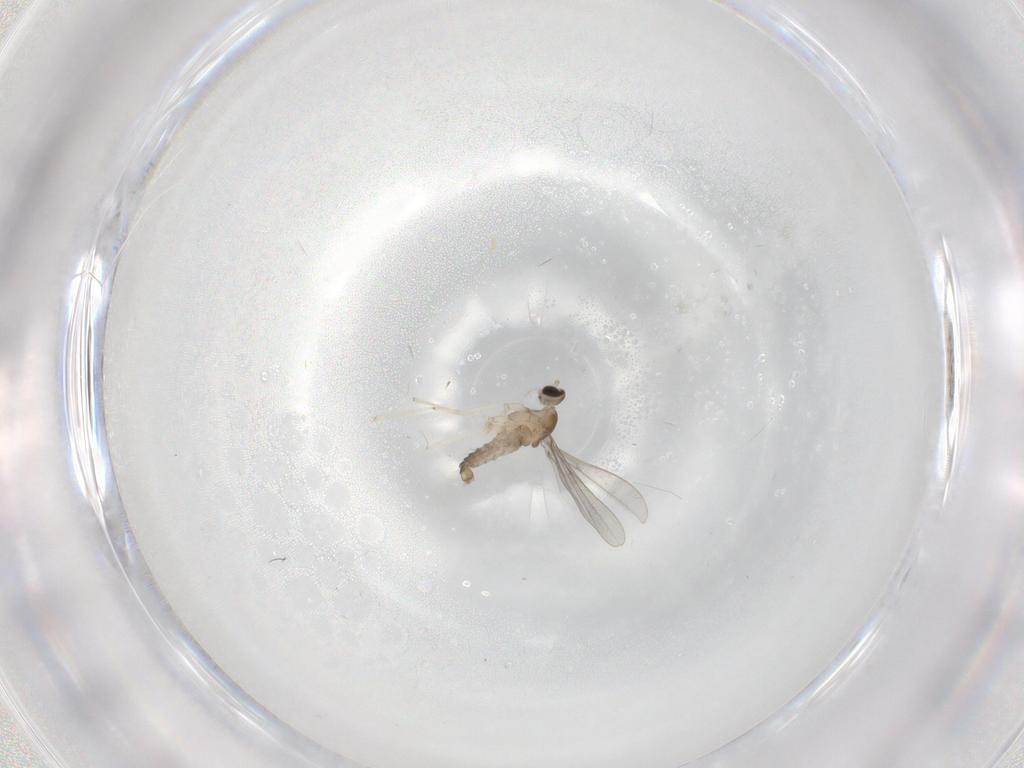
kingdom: Animalia
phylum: Arthropoda
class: Insecta
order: Diptera
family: Cecidomyiidae
